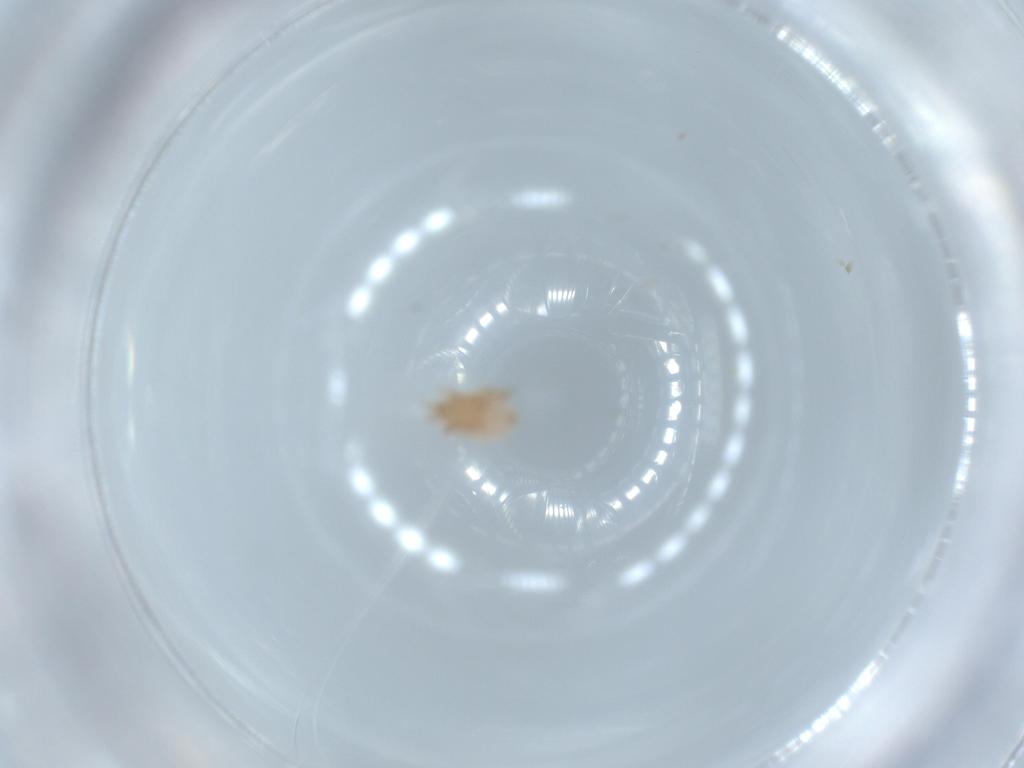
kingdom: Animalia
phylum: Arthropoda
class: Arachnida
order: Mesostigmata
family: Halolaelapidae
